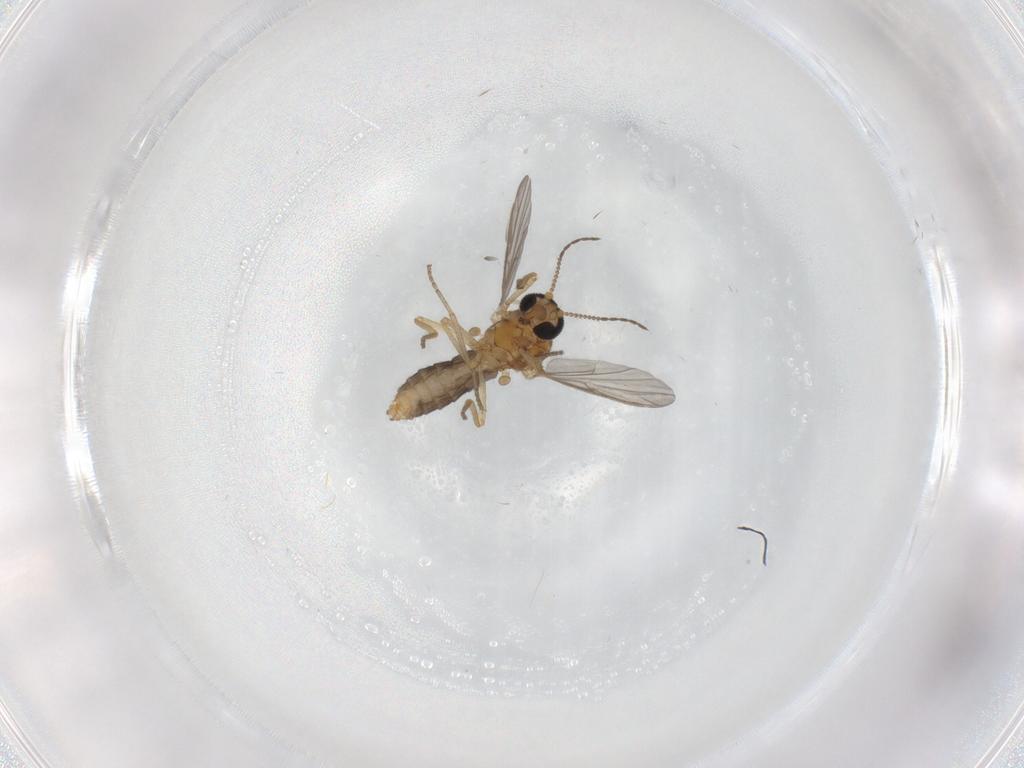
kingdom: Animalia
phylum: Arthropoda
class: Insecta
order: Diptera
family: Ceratopogonidae
